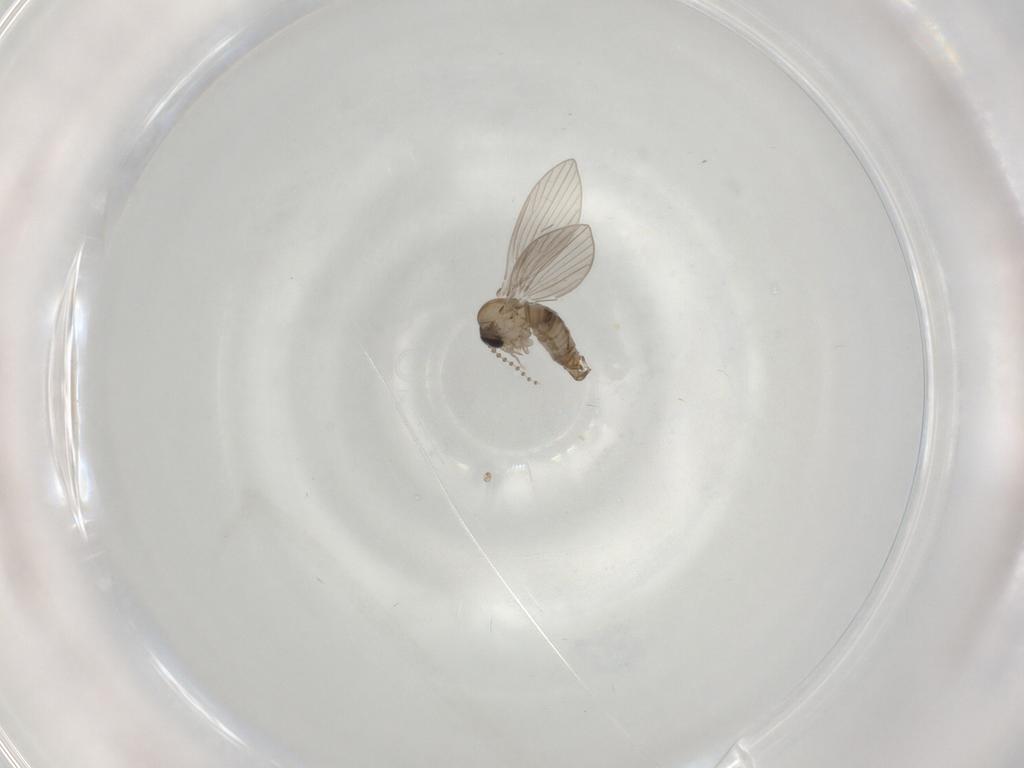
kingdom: Animalia
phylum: Arthropoda
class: Insecta
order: Diptera
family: Psychodidae
